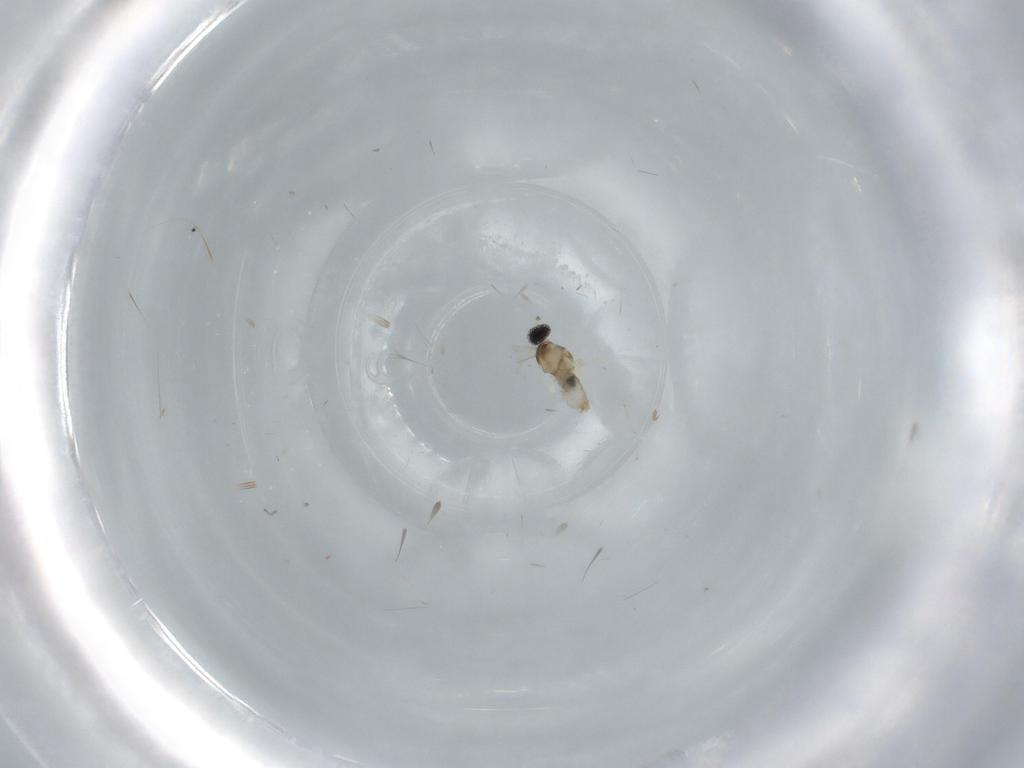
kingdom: Animalia
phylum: Arthropoda
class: Insecta
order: Diptera
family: Cecidomyiidae
